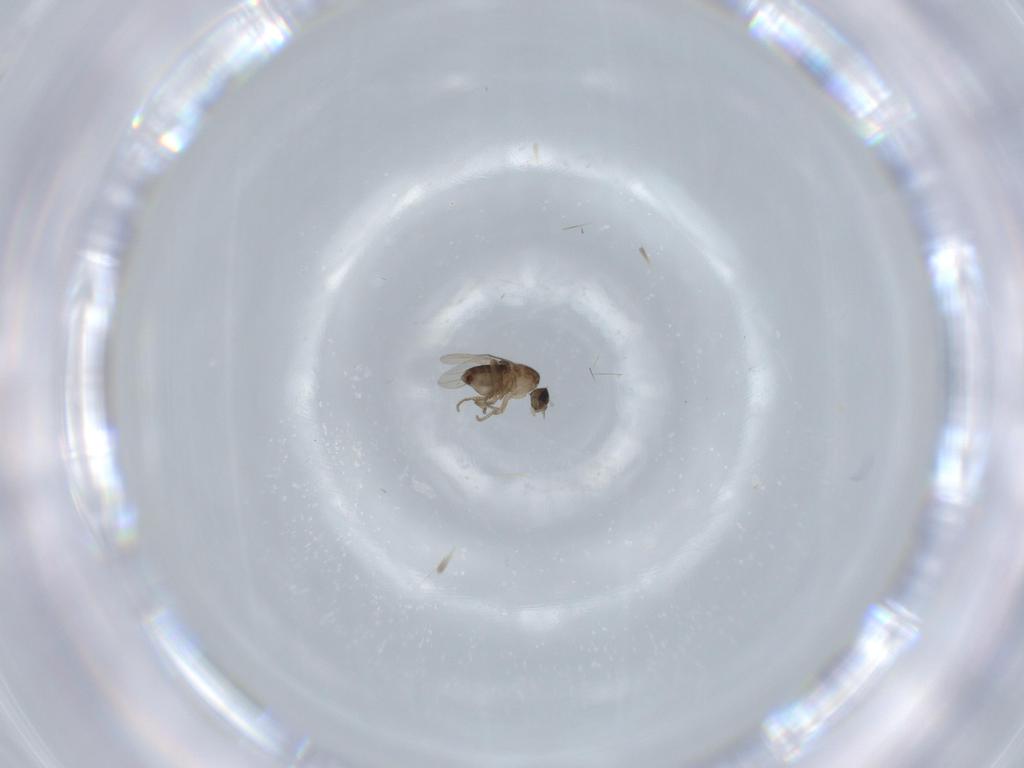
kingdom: Animalia
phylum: Arthropoda
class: Insecta
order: Diptera
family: Phoridae
